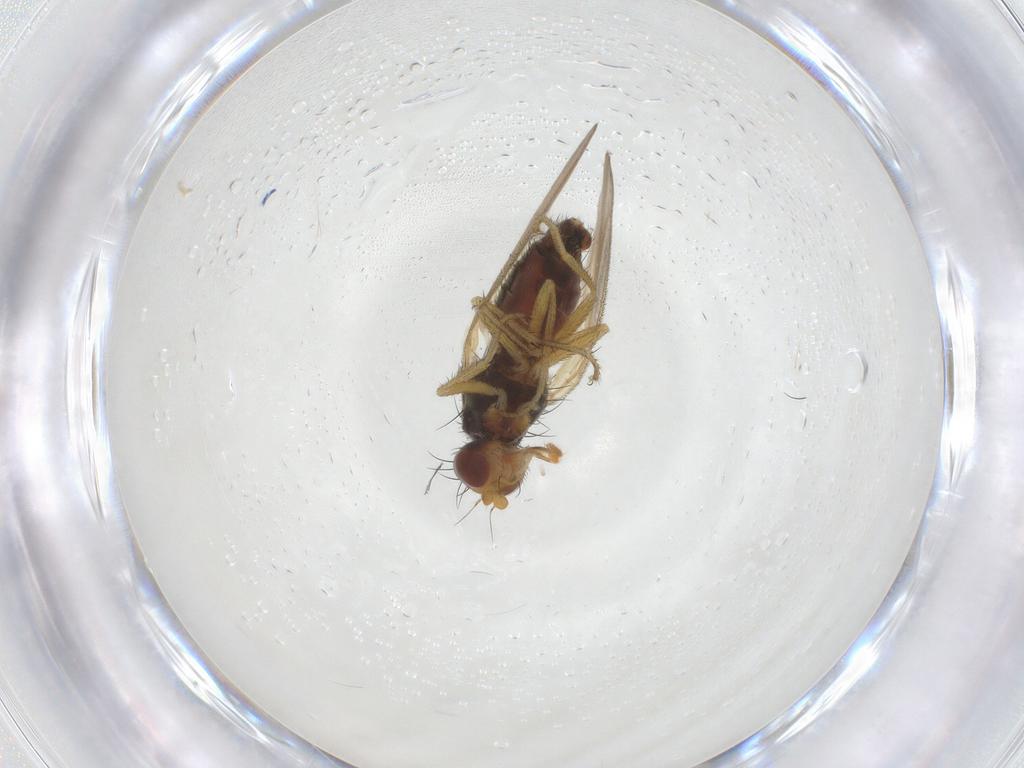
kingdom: Animalia
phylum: Arthropoda
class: Insecta
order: Diptera
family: Heleomyzidae
